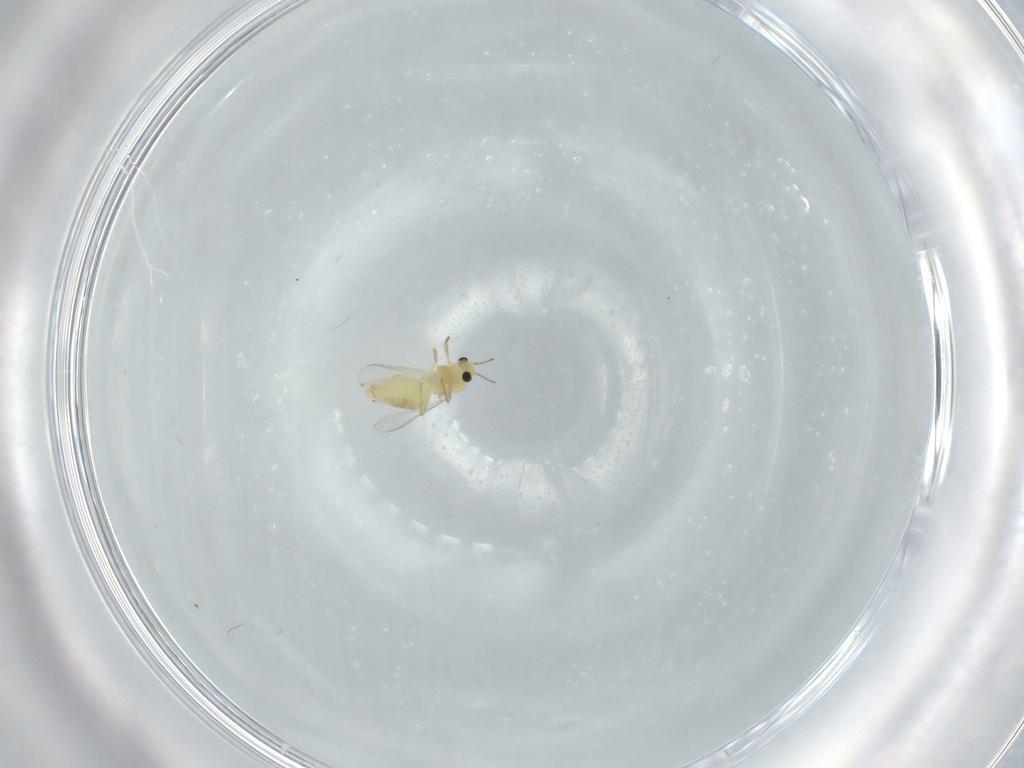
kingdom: Animalia
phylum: Arthropoda
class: Insecta
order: Diptera
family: Chironomidae
